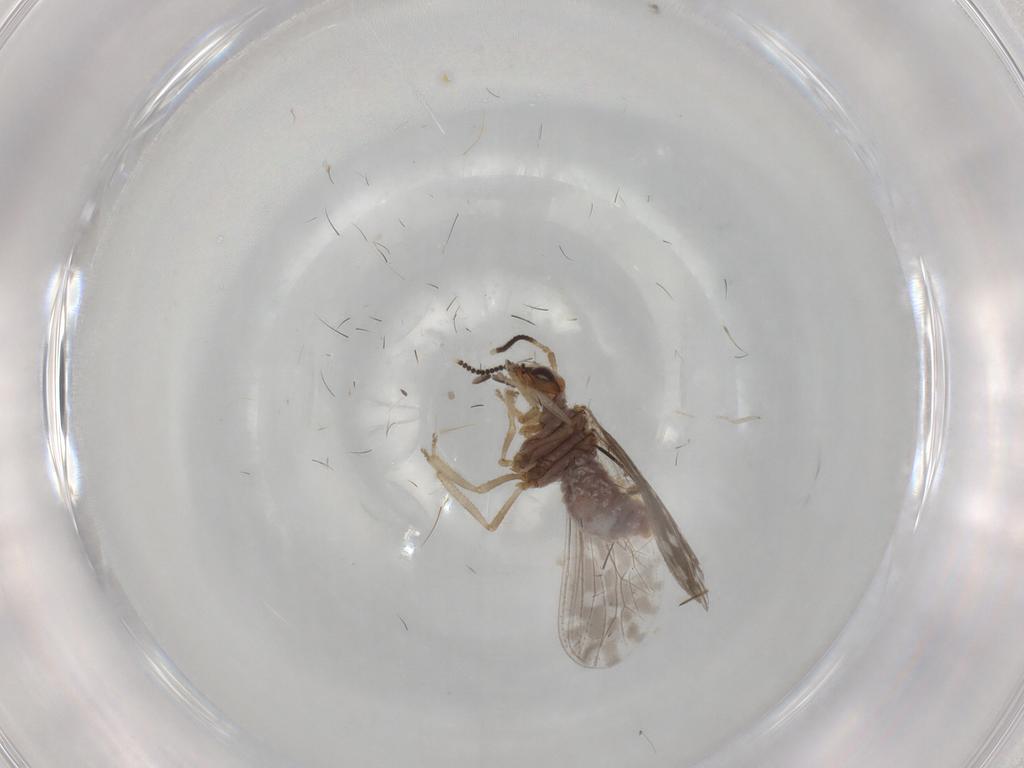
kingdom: Animalia
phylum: Arthropoda
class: Insecta
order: Neuroptera
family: Coniopterygidae
